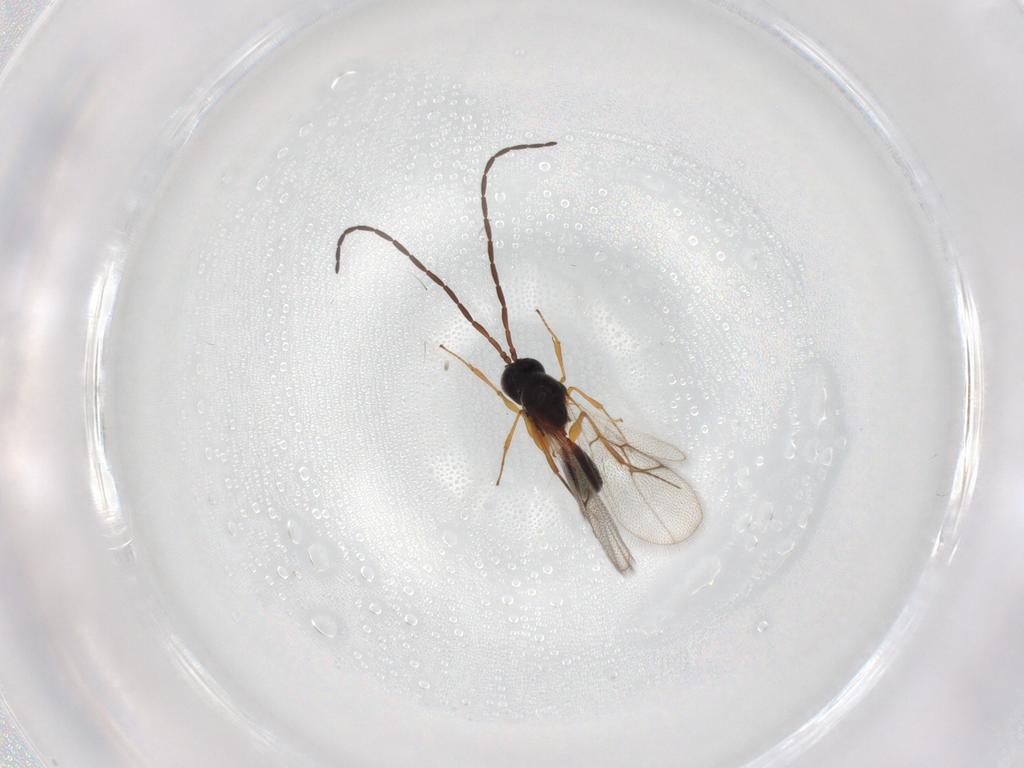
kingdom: Animalia
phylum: Arthropoda
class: Insecta
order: Hymenoptera
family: Figitidae
